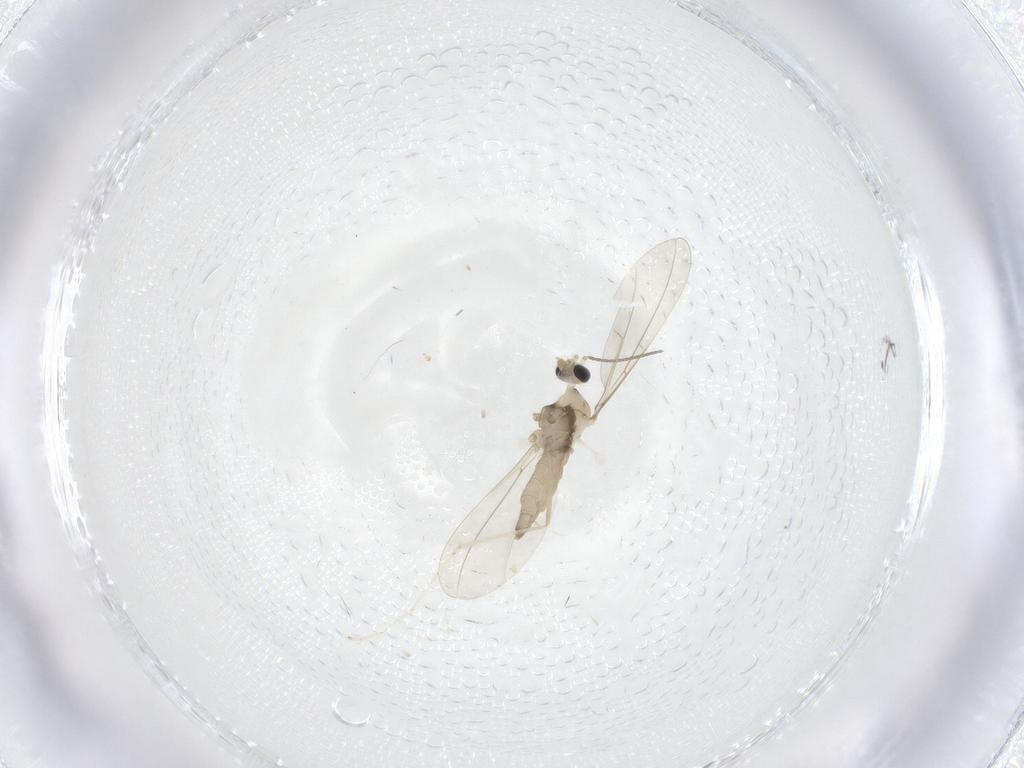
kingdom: Animalia
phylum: Arthropoda
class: Insecta
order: Diptera
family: Cecidomyiidae
